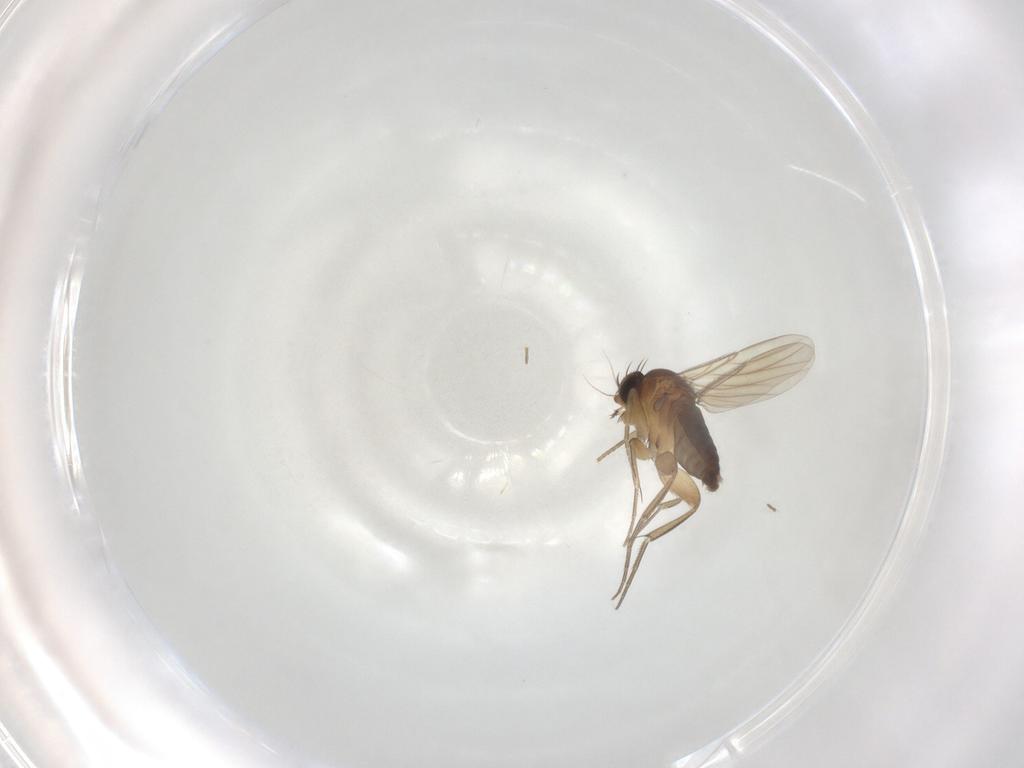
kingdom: Animalia
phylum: Arthropoda
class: Insecta
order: Diptera
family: Phoridae
